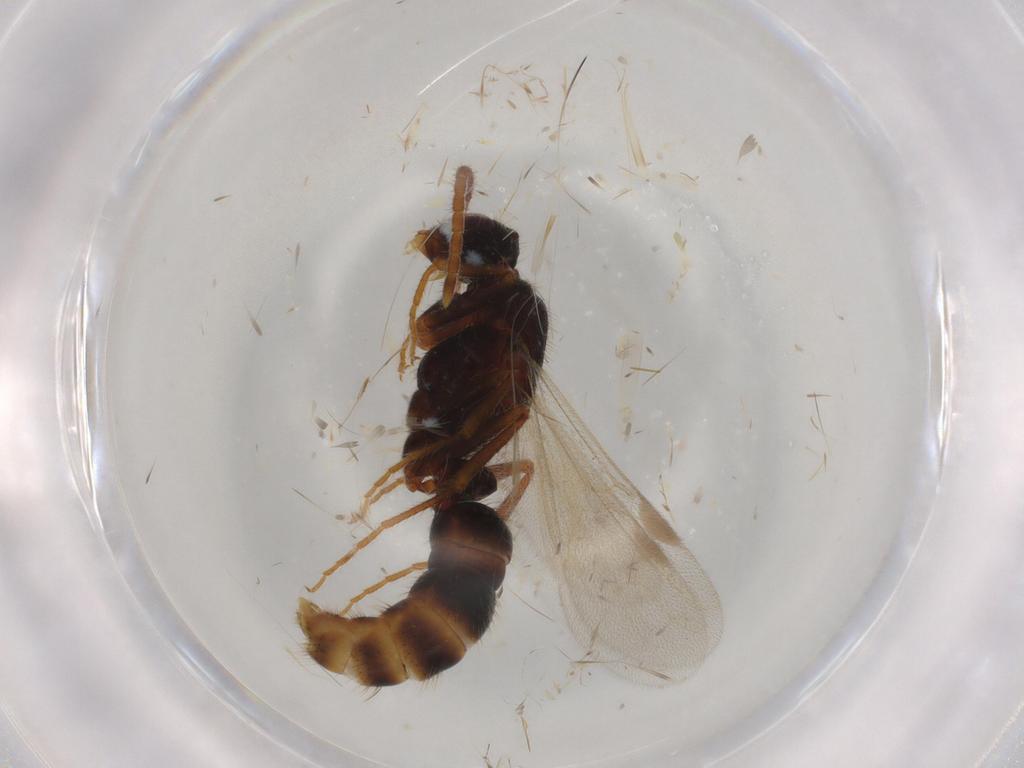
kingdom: Animalia
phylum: Arthropoda
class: Insecta
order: Hymenoptera
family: Formicidae
